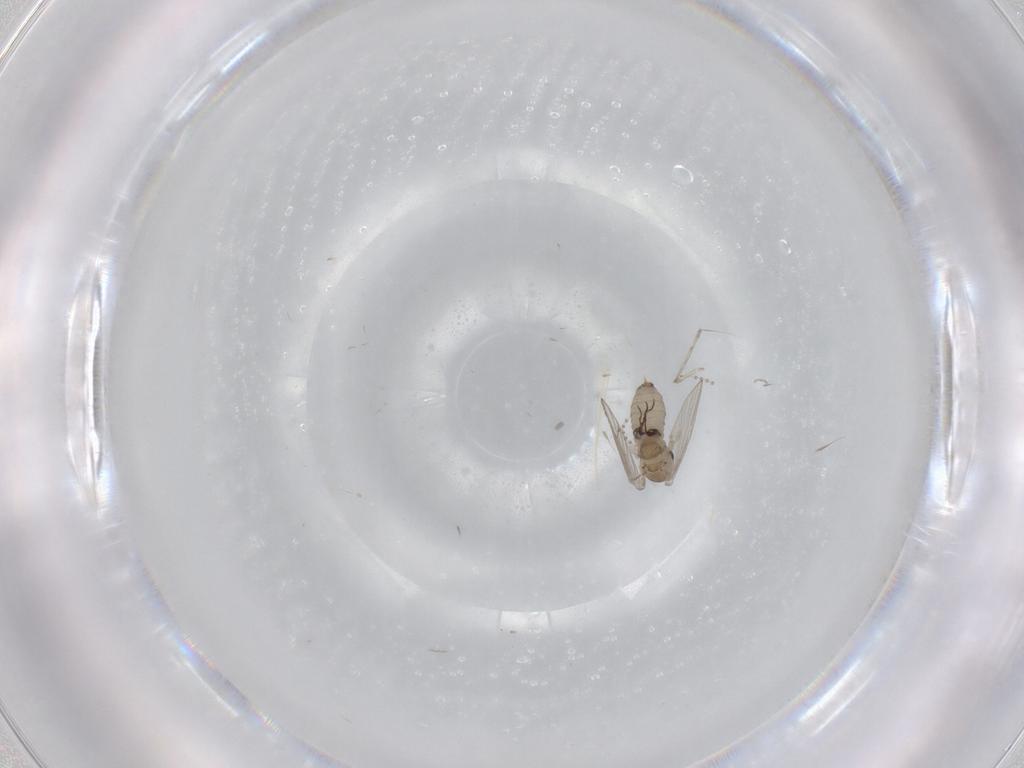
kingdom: Animalia
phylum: Arthropoda
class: Insecta
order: Diptera
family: Psychodidae
